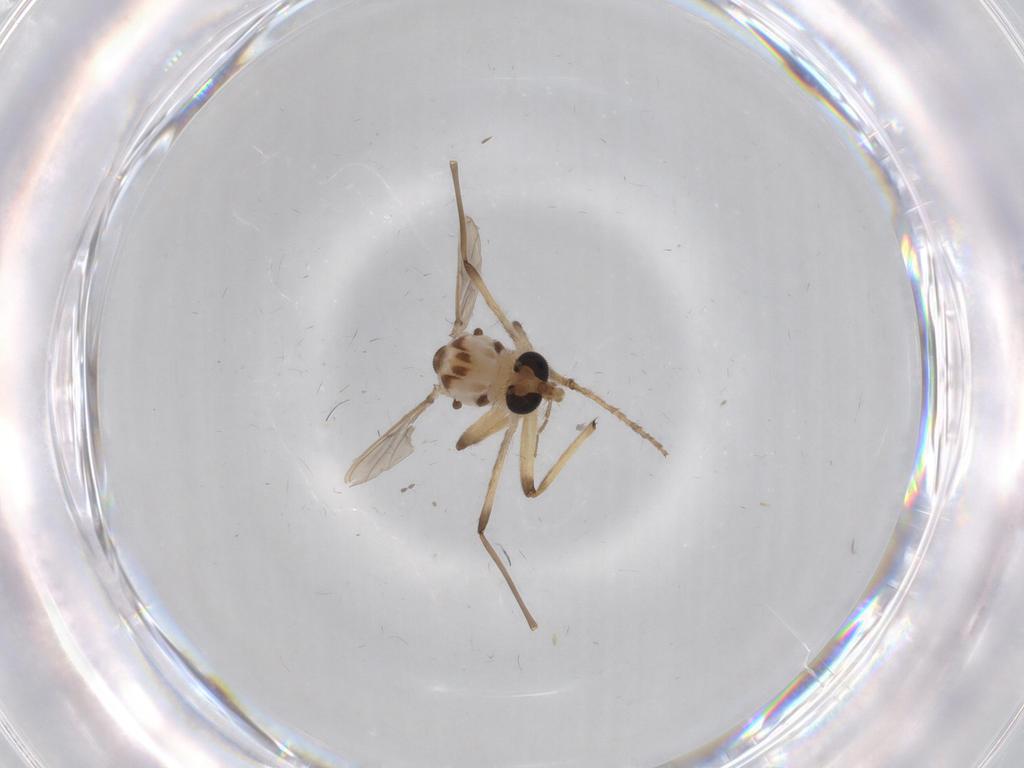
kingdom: Animalia
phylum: Arthropoda
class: Insecta
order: Diptera
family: Chironomidae
